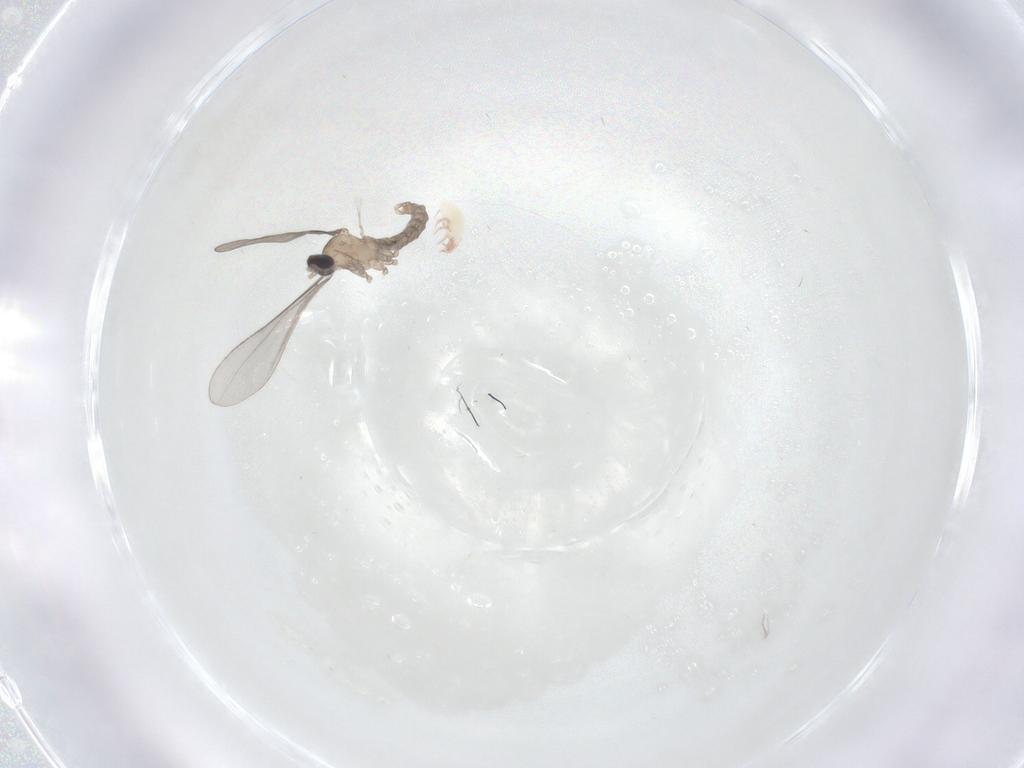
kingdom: Animalia
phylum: Arthropoda
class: Insecta
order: Diptera
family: Cecidomyiidae
